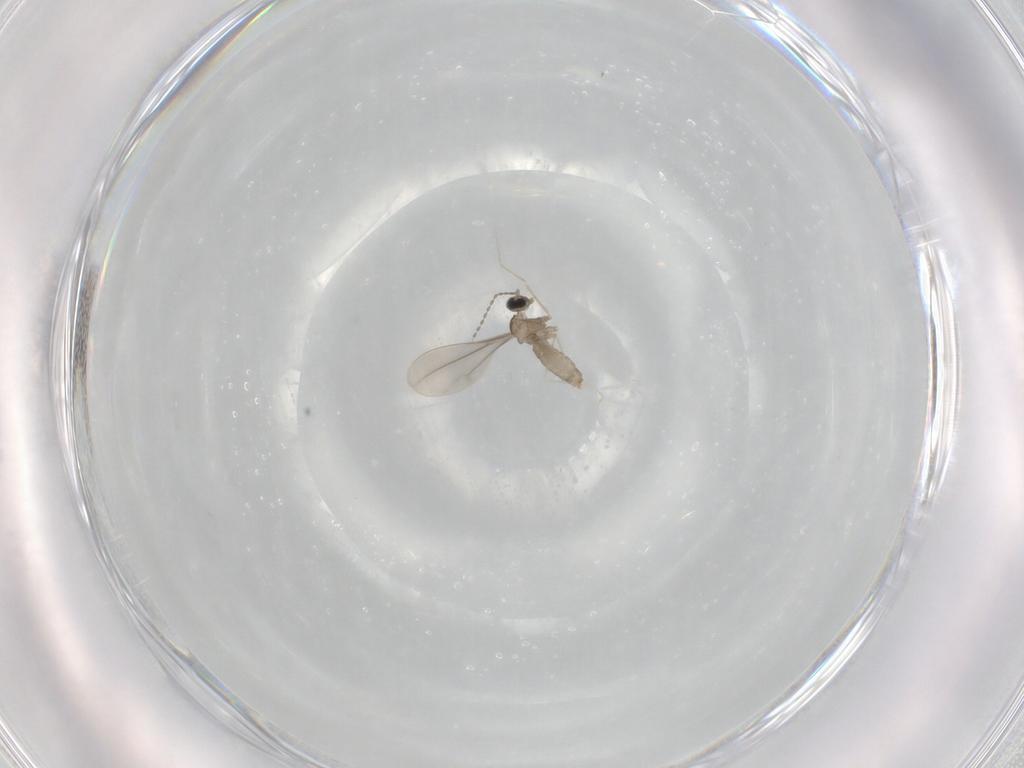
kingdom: Animalia
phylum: Arthropoda
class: Insecta
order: Diptera
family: Cecidomyiidae
